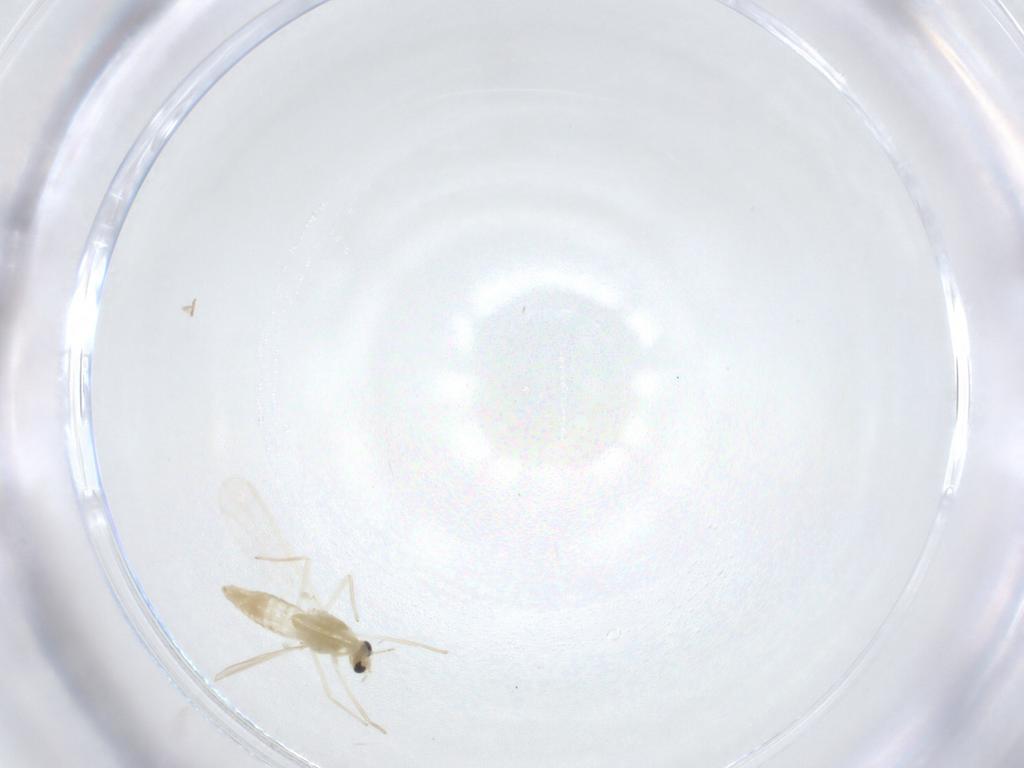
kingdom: Animalia
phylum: Arthropoda
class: Insecta
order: Diptera
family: Chironomidae
